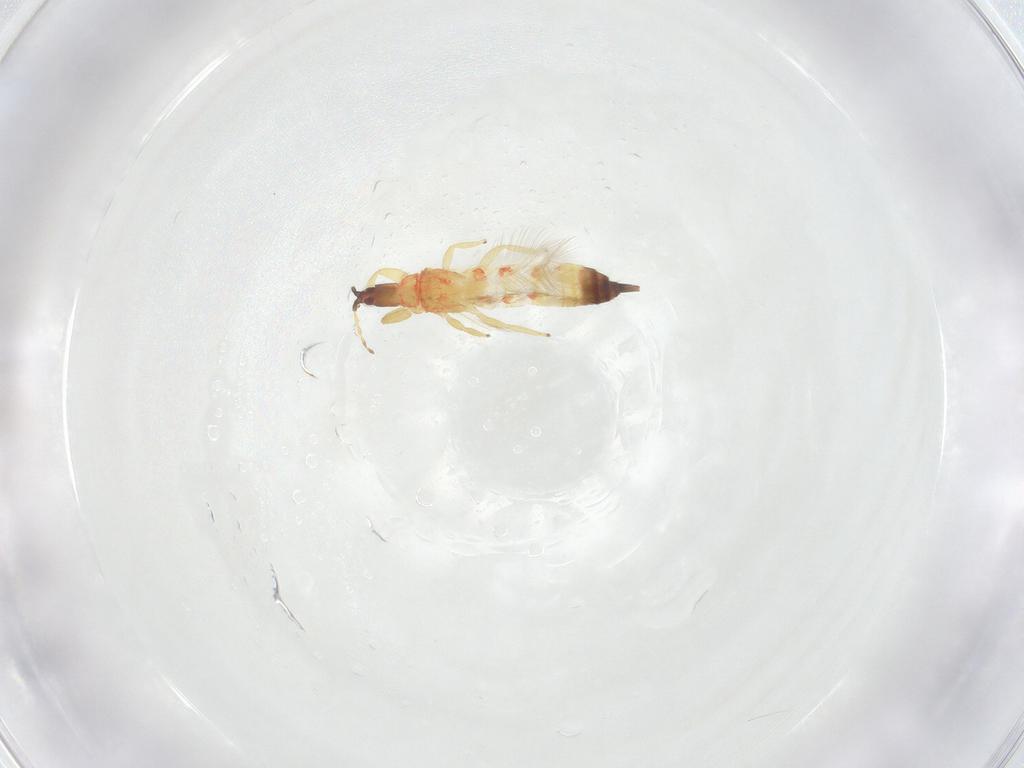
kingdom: Animalia
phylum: Arthropoda
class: Insecta
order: Thysanoptera
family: Phlaeothripidae
